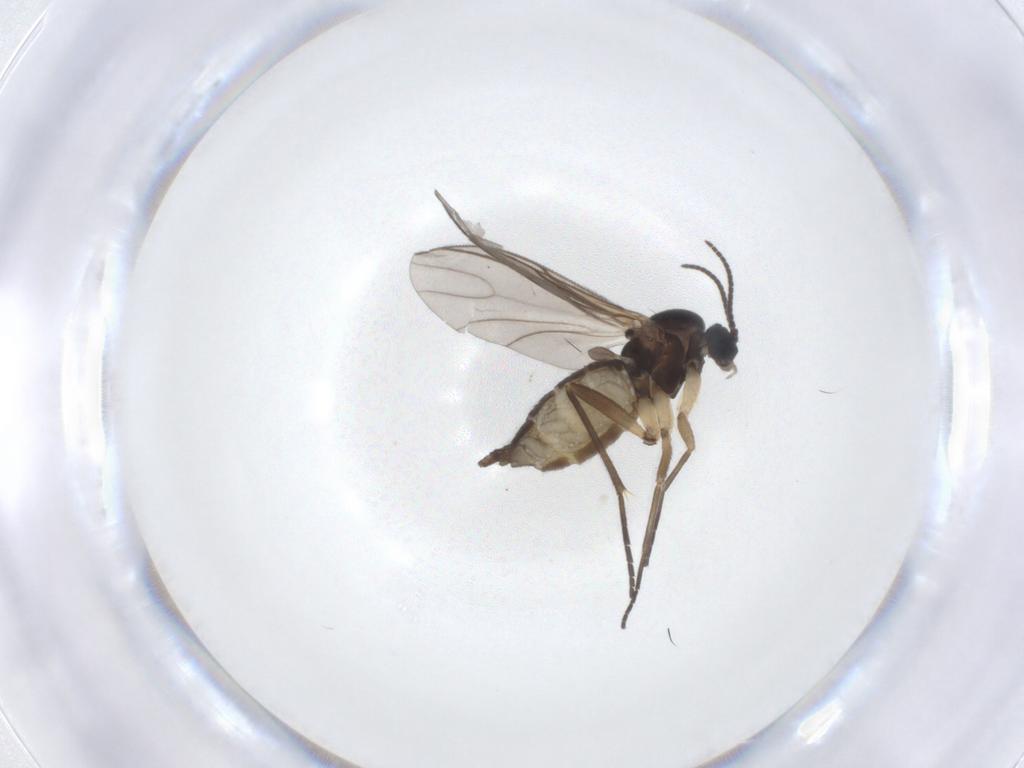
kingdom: Animalia
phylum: Arthropoda
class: Insecta
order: Diptera
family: Sciaridae
